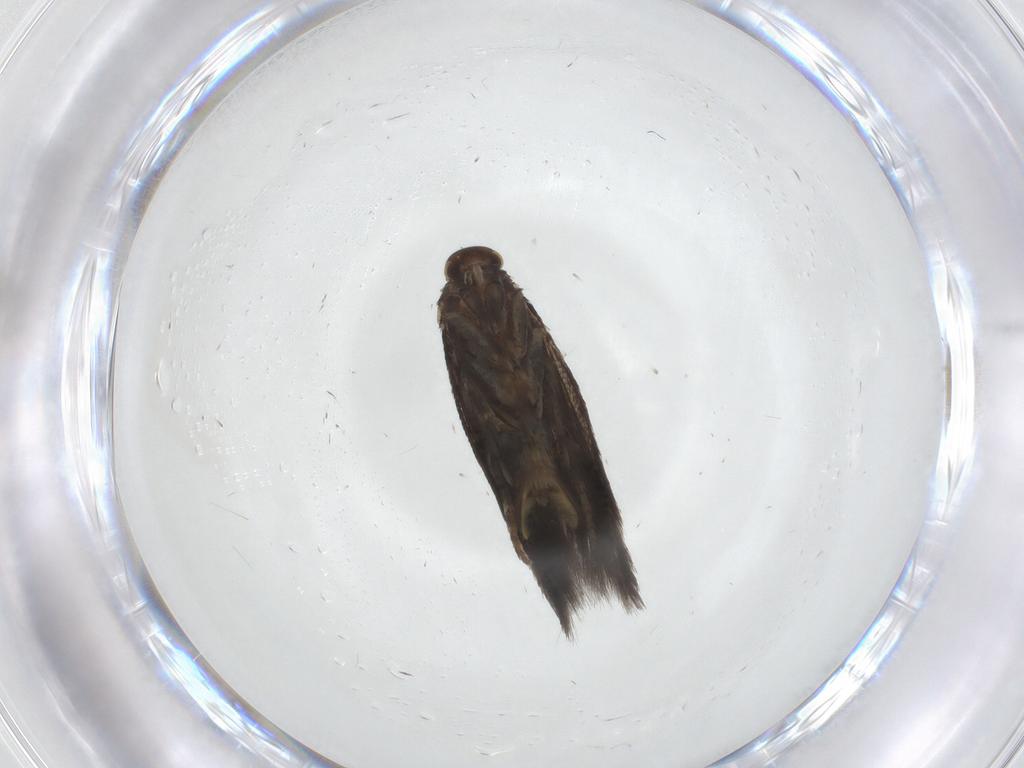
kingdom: Animalia
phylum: Arthropoda
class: Insecta
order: Lepidoptera
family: Elachistidae
